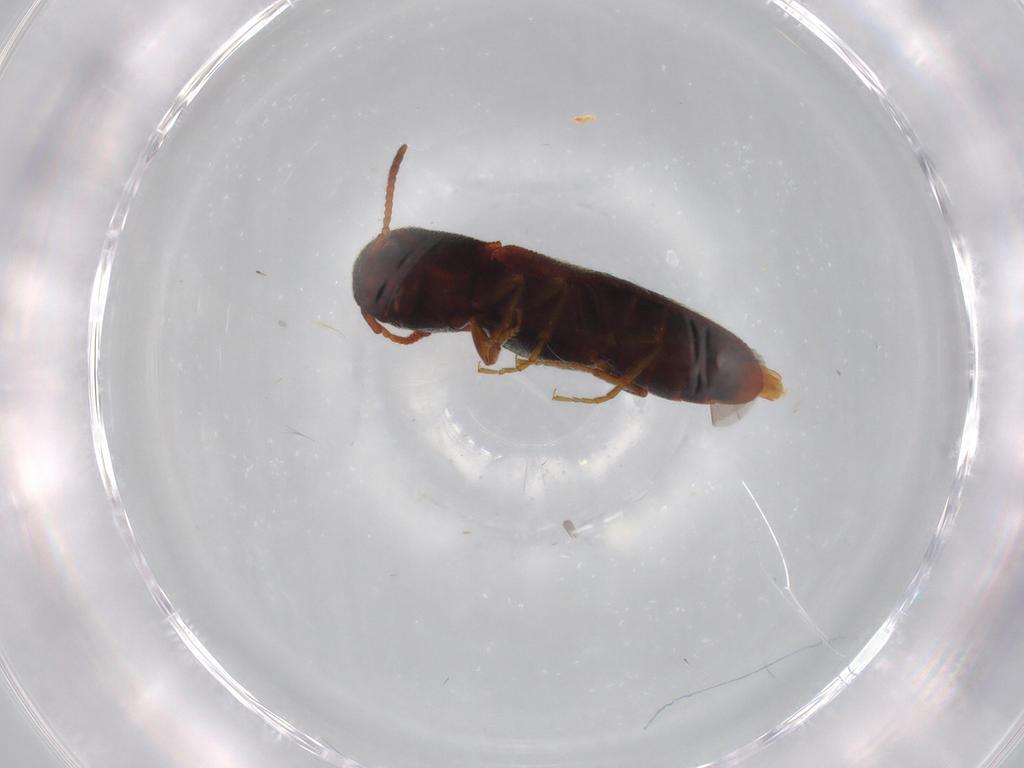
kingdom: Animalia
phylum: Arthropoda
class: Insecta
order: Coleoptera
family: Eucnemidae
